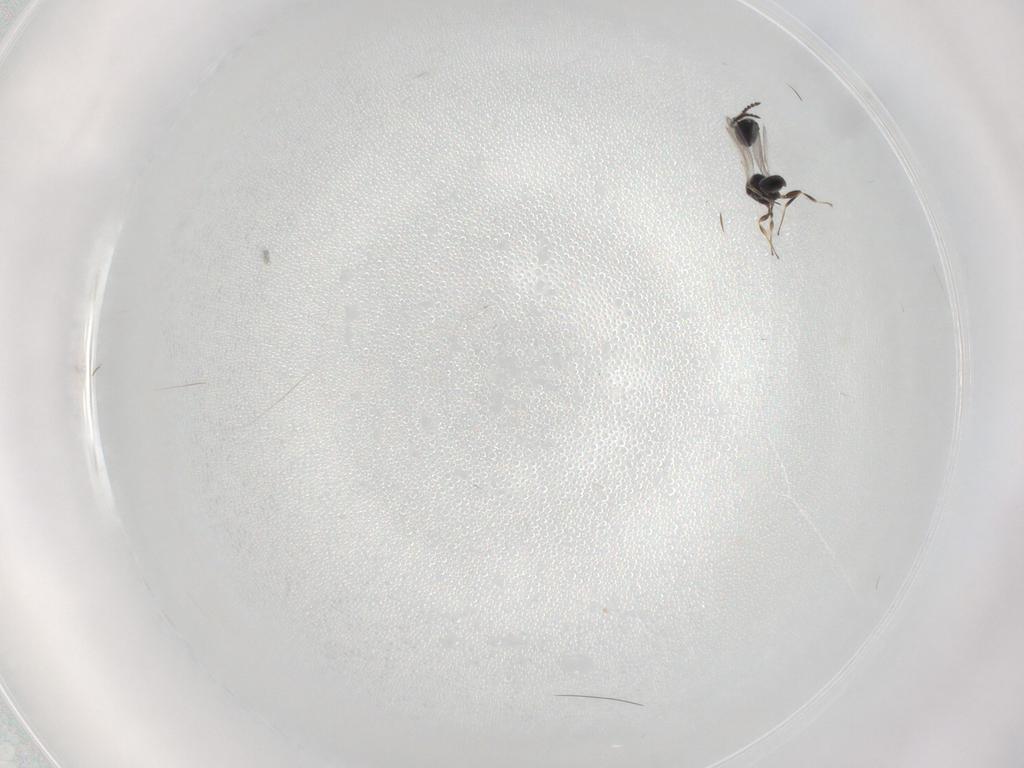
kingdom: Animalia
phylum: Arthropoda
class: Insecta
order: Hymenoptera
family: Scelionidae
